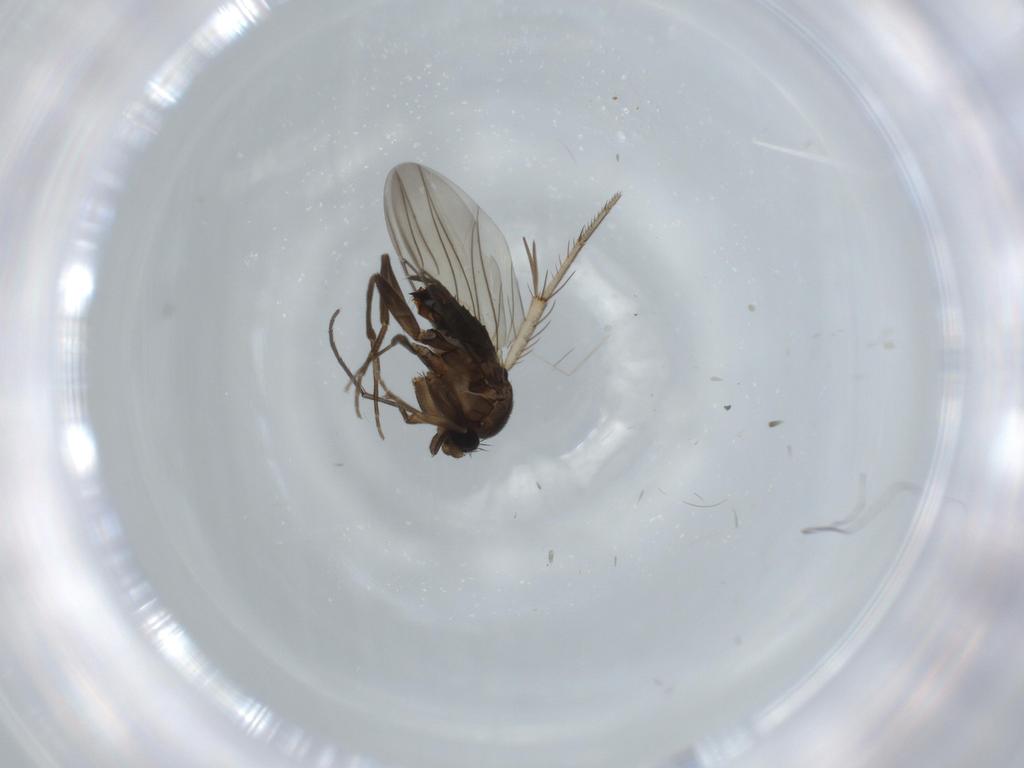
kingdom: Animalia
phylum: Arthropoda
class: Insecta
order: Diptera
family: Sciaridae
